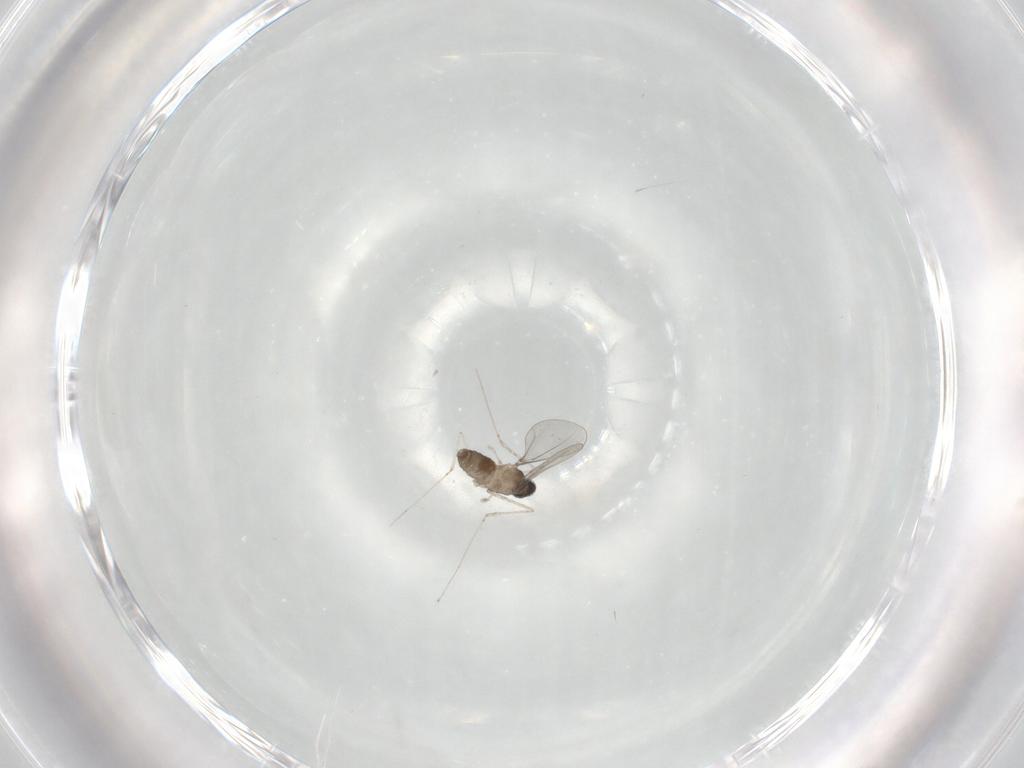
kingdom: Animalia
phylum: Arthropoda
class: Insecta
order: Diptera
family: Cecidomyiidae
